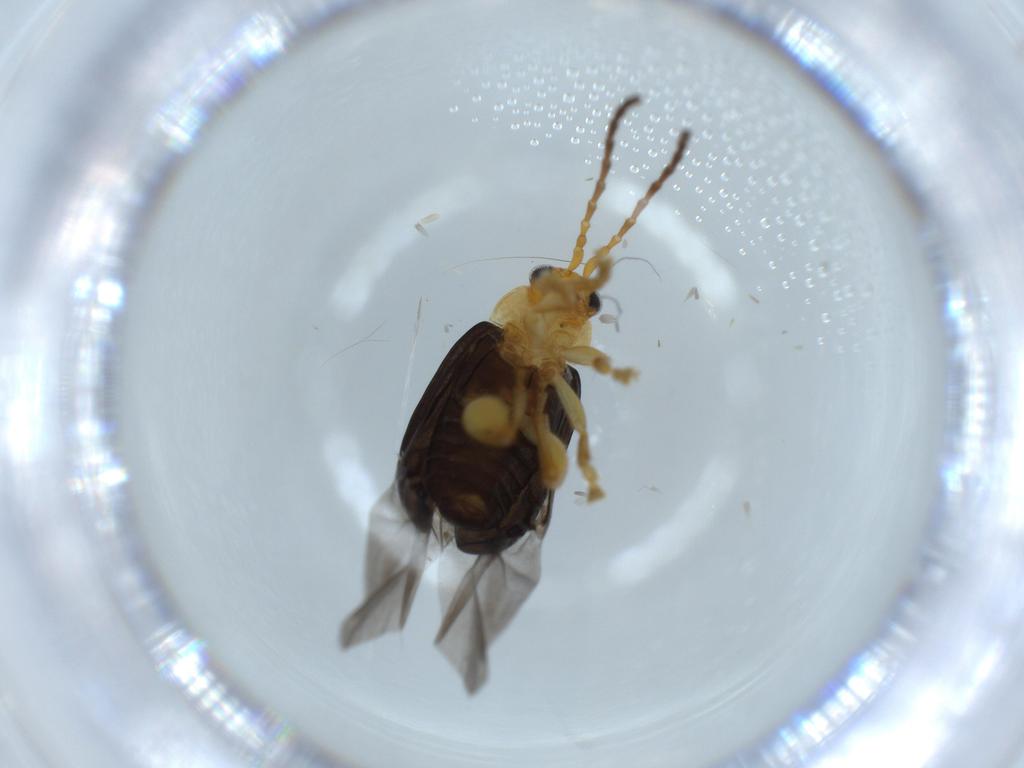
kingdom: Animalia
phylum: Arthropoda
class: Insecta
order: Coleoptera
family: Chrysomelidae
